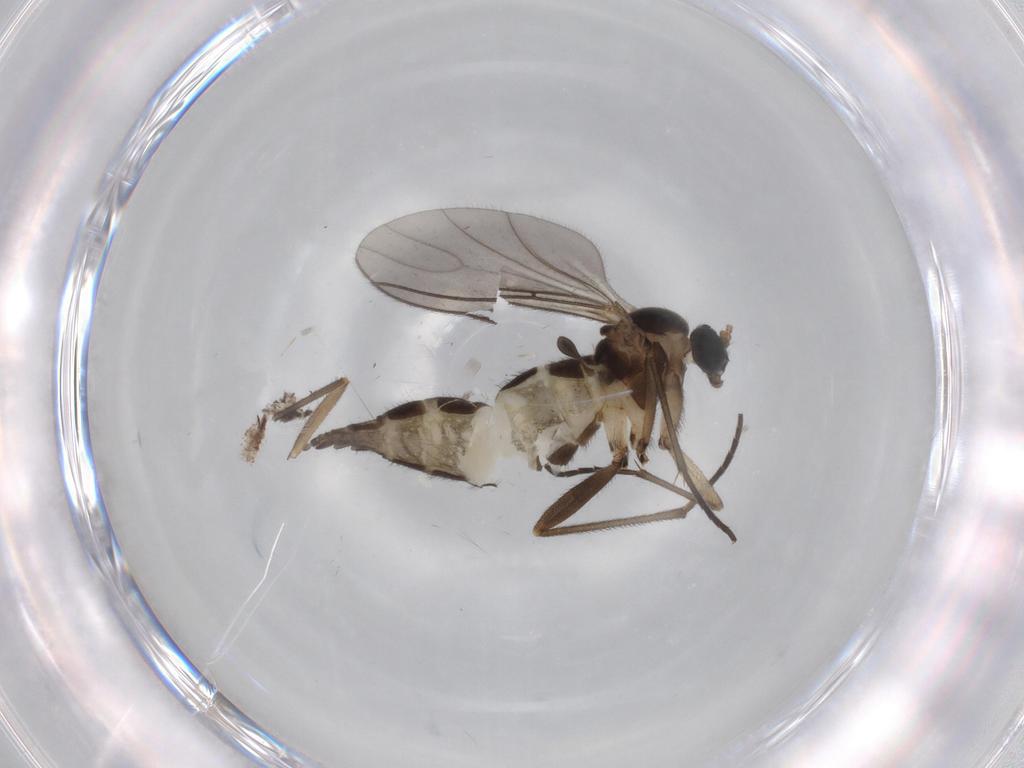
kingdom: Animalia
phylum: Arthropoda
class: Insecta
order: Diptera
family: Sciaridae
